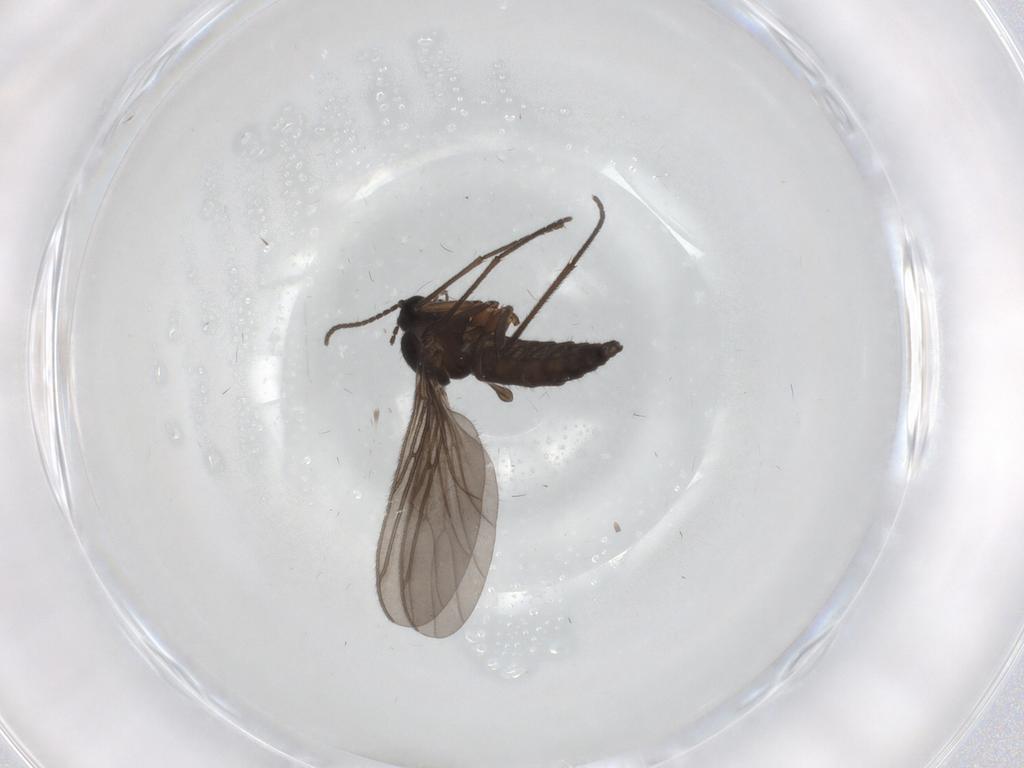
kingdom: Animalia
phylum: Arthropoda
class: Insecta
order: Diptera
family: Sciaridae
